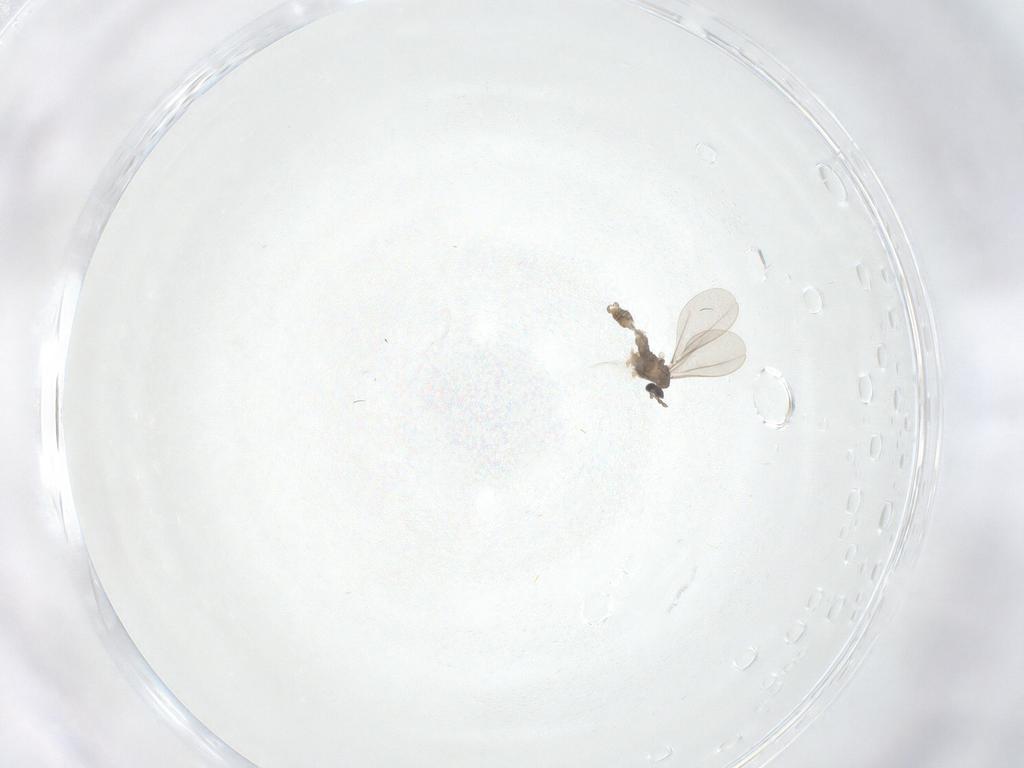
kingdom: Animalia
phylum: Arthropoda
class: Insecta
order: Diptera
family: Cecidomyiidae
